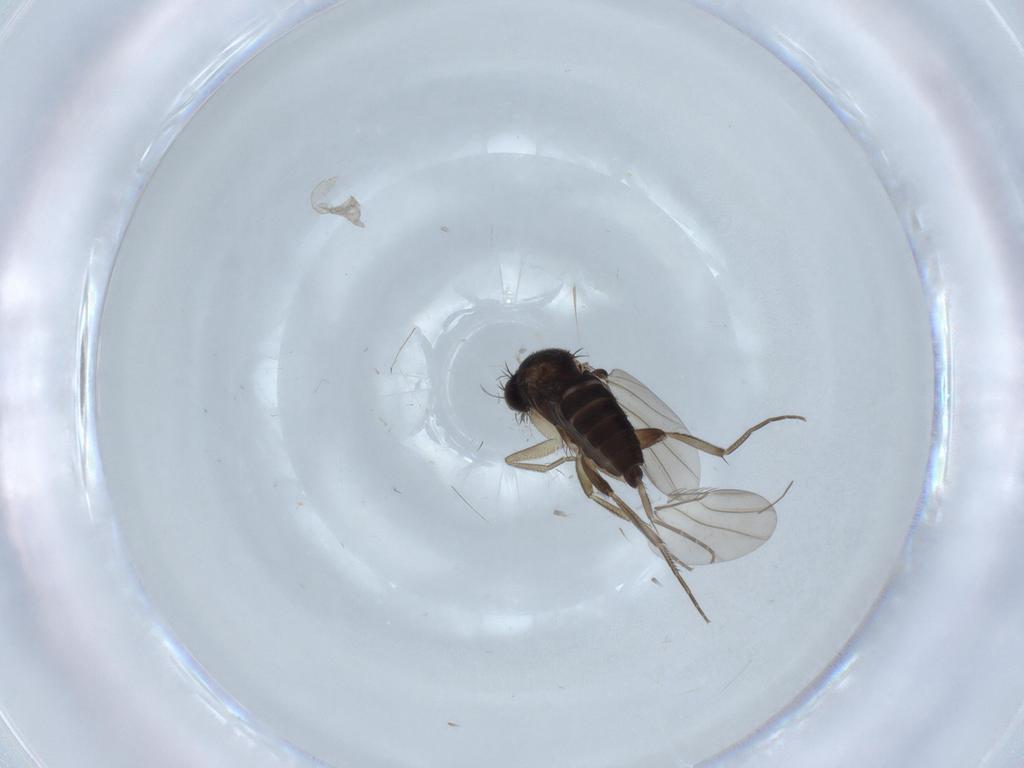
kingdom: Animalia
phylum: Arthropoda
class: Insecta
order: Diptera
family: Phoridae
